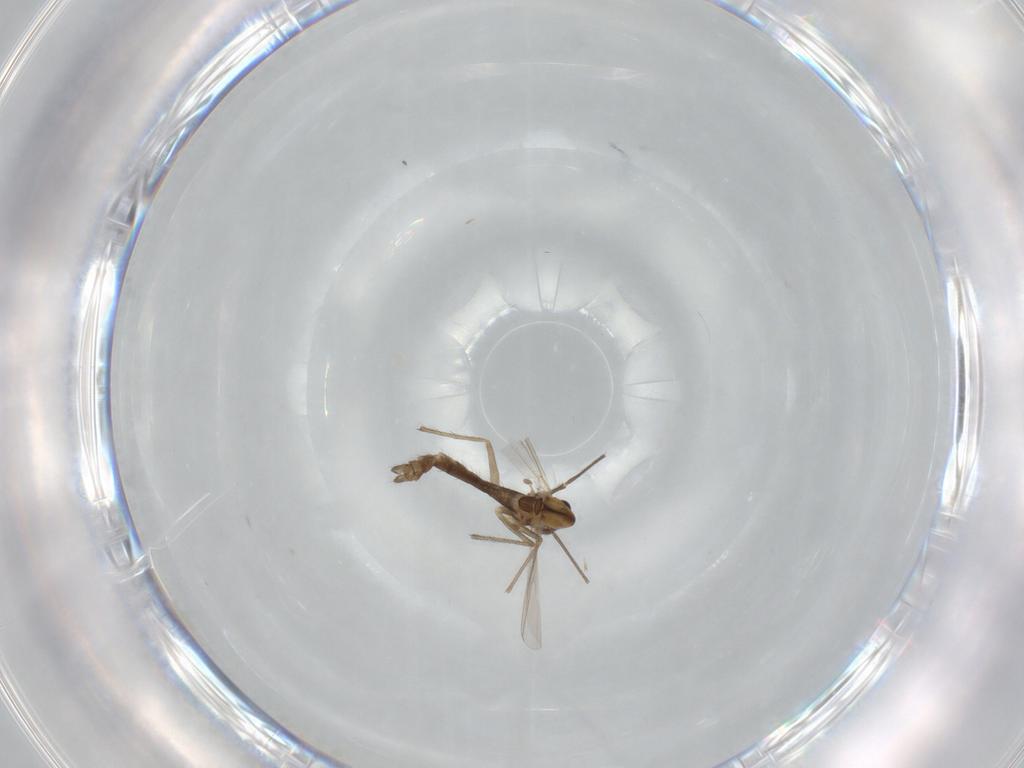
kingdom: Animalia
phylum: Arthropoda
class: Insecta
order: Diptera
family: Chironomidae
